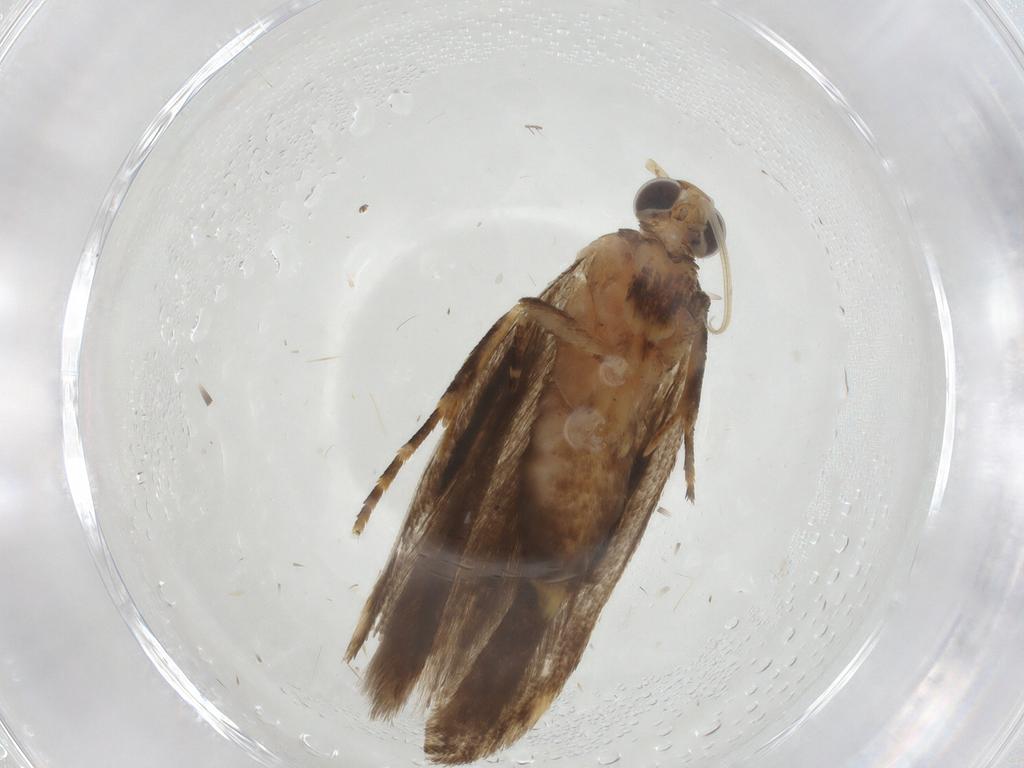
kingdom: Animalia
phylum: Arthropoda
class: Insecta
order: Lepidoptera
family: Gelechiidae
